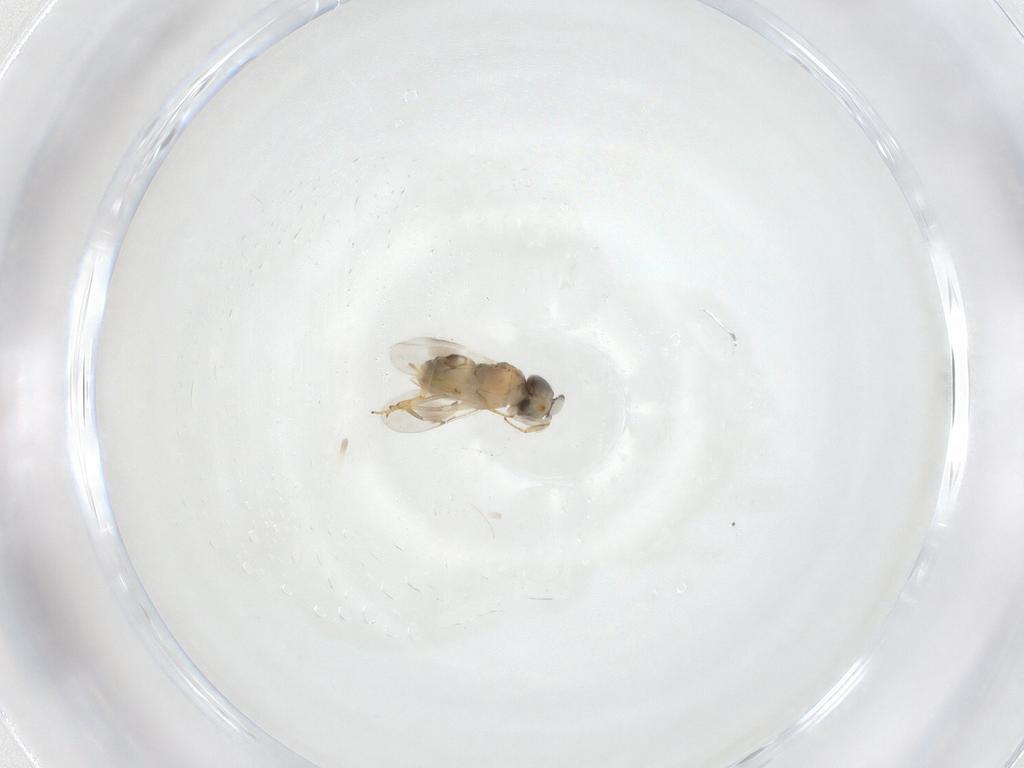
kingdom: Animalia
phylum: Arthropoda
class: Insecta
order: Hymenoptera
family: Encyrtidae
